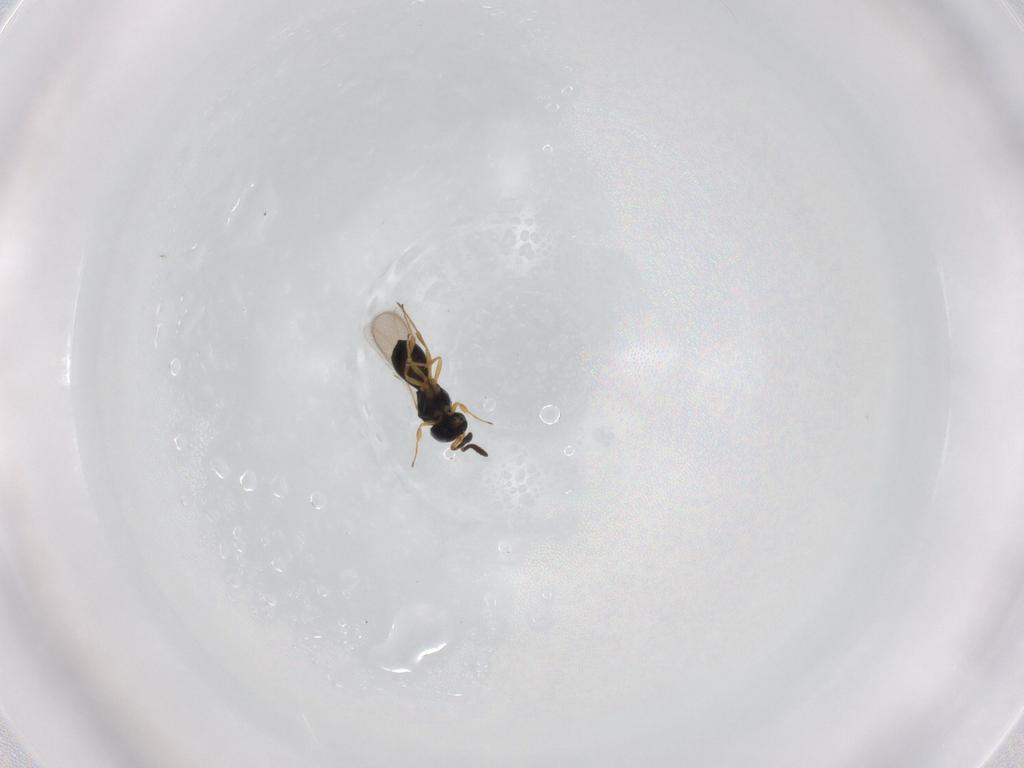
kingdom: Animalia
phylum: Arthropoda
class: Insecta
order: Hymenoptera
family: Scelionidae
